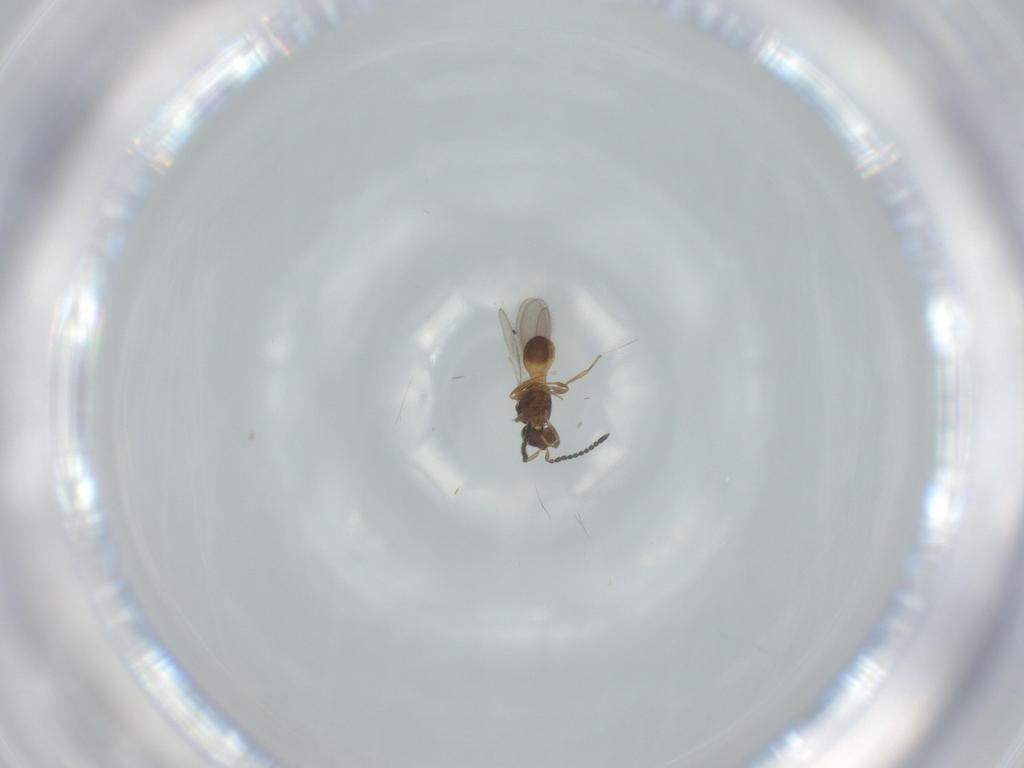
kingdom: Animalia
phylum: Arthropoda
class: Insecta
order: Hymenoptera
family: Scelionidae
